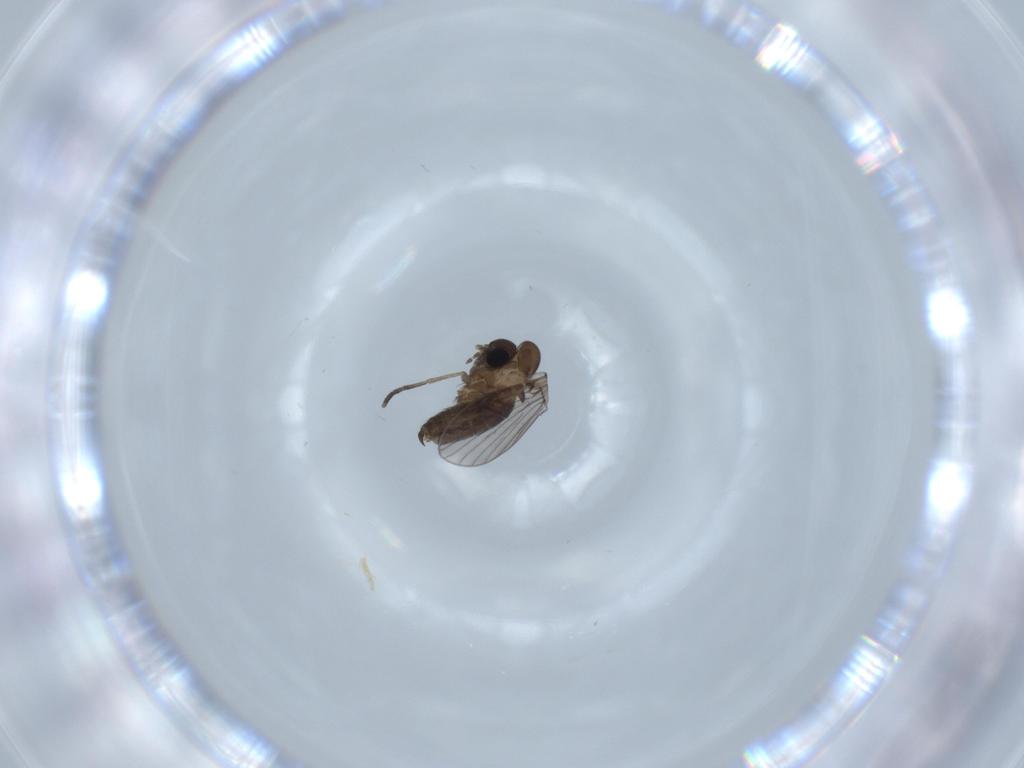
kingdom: Animalia
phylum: Arthropoda
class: Insecta
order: Diptera
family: Psychodidae
